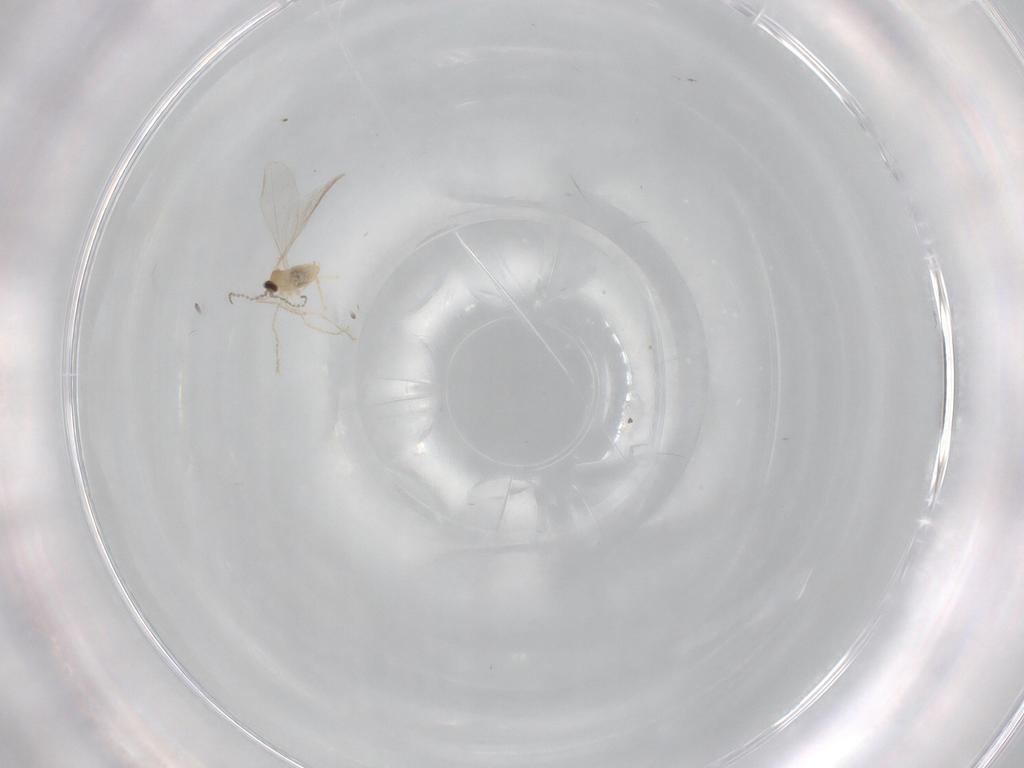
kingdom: Animalia
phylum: Arthropoda
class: Insecta
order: Diptera
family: Cecidomyiidae
